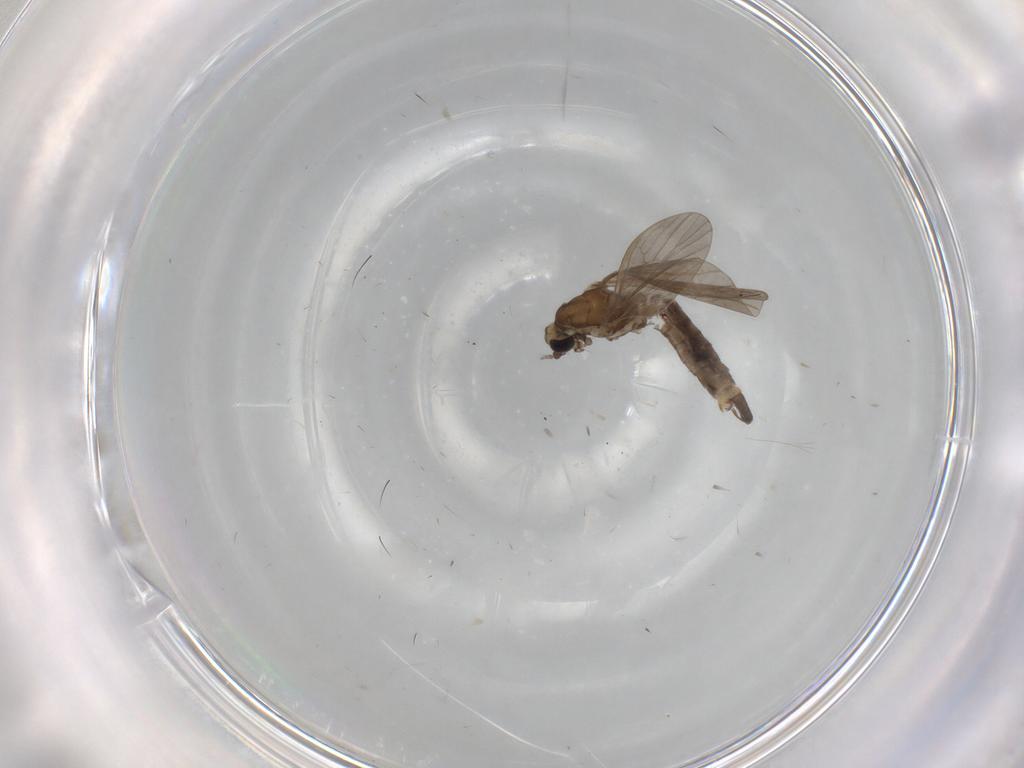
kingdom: Animalia
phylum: Arthropoda
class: Insecta
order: Diptera
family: Limoniidae
